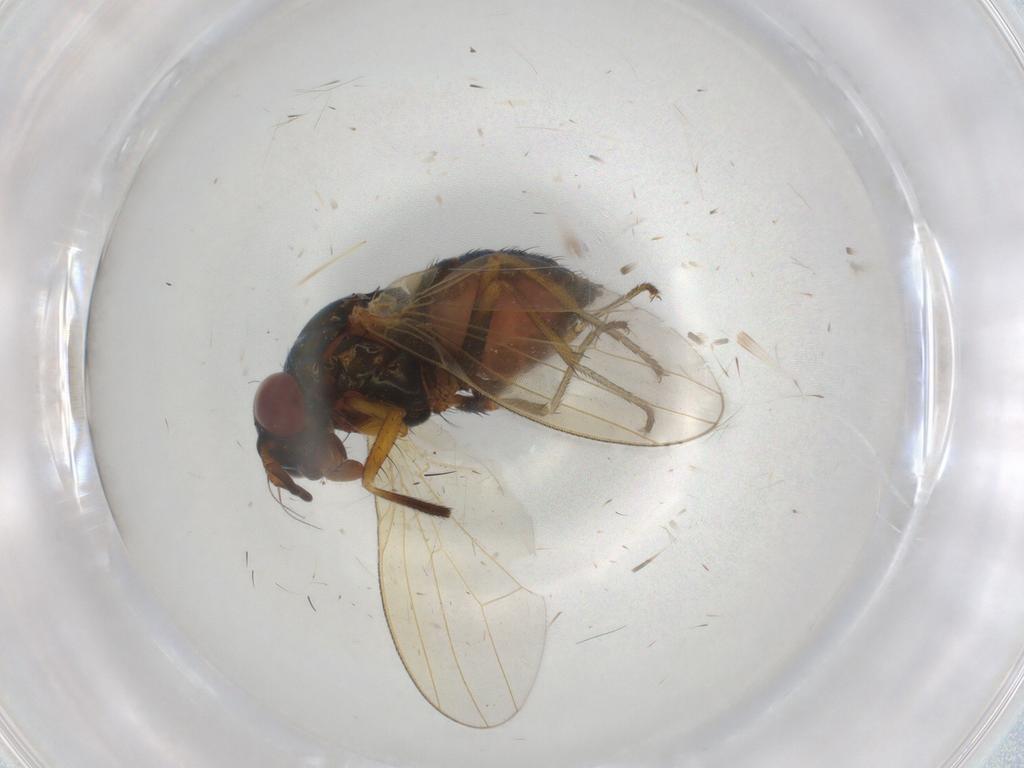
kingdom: Animalia
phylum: Arthropoda
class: Insecta
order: Diptera
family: Lauxaniidae
